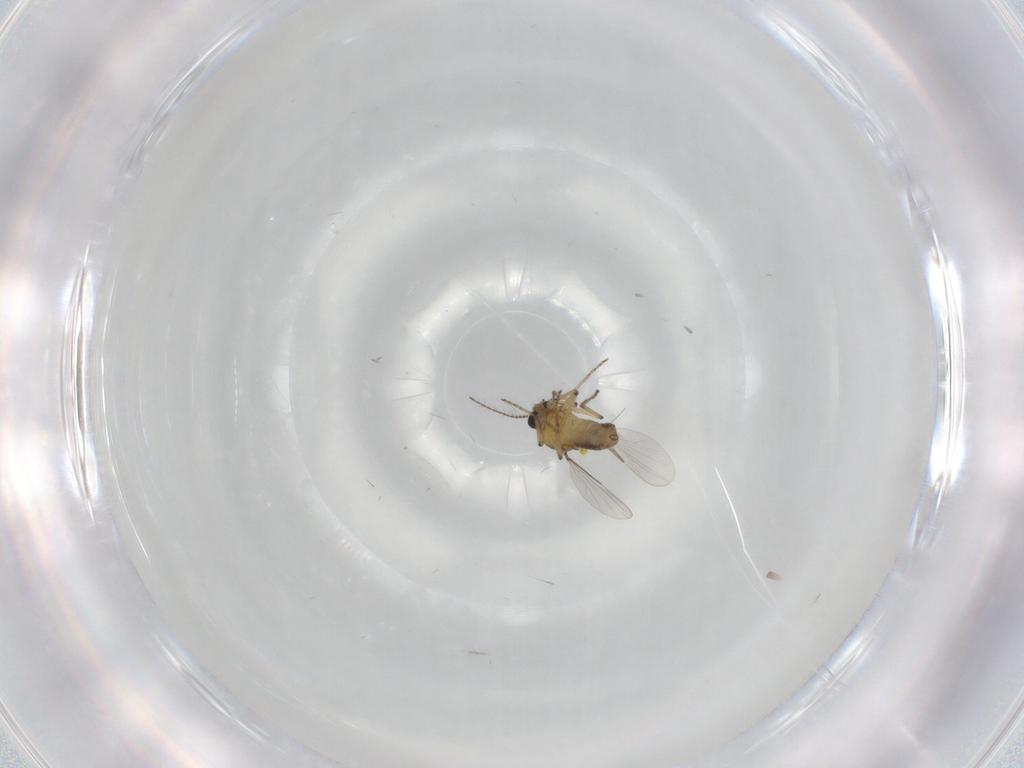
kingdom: Animalia
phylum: Arthropoda
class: Insecta
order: Diptera
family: Ceratopogonidae
